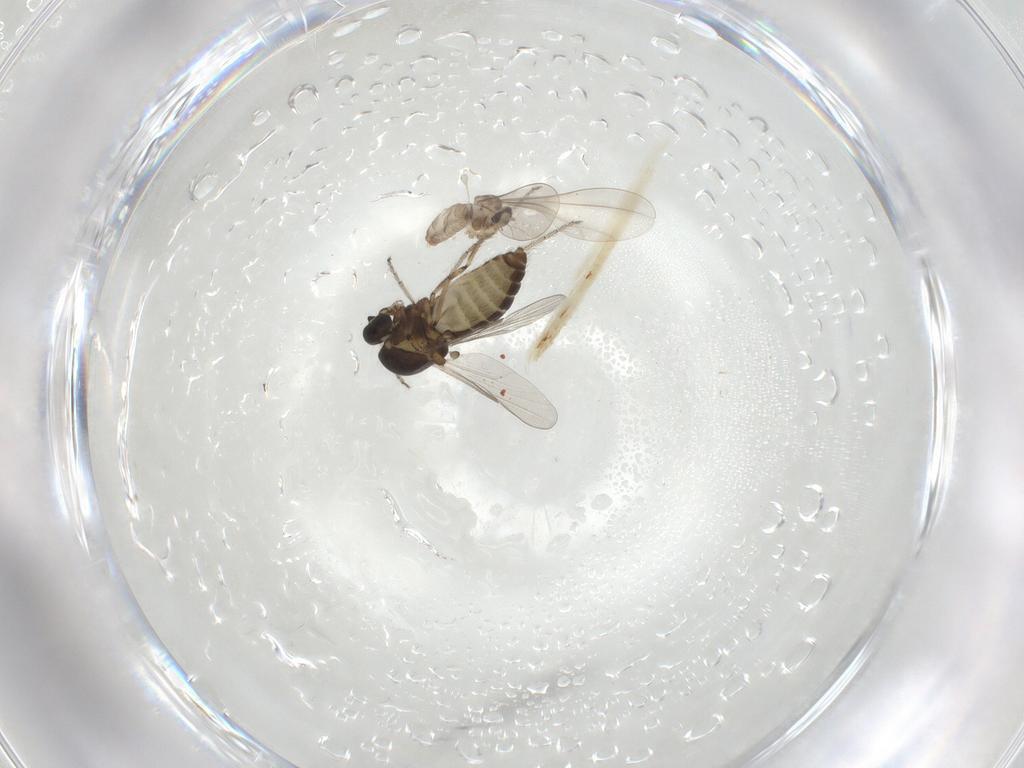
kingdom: Animalia
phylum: Arthropoda
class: Insecta
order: Diptera
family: Ceratopogonidae
